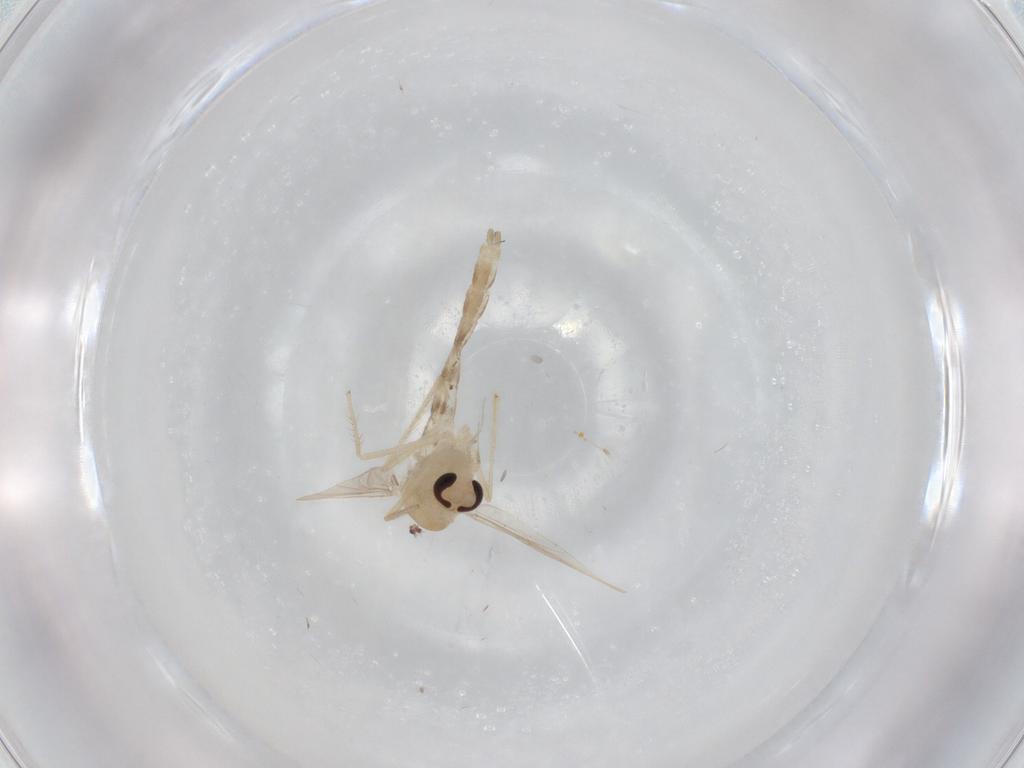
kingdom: Animalia
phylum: Arthropoda
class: Insecta
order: Diptera
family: Chironomidae
